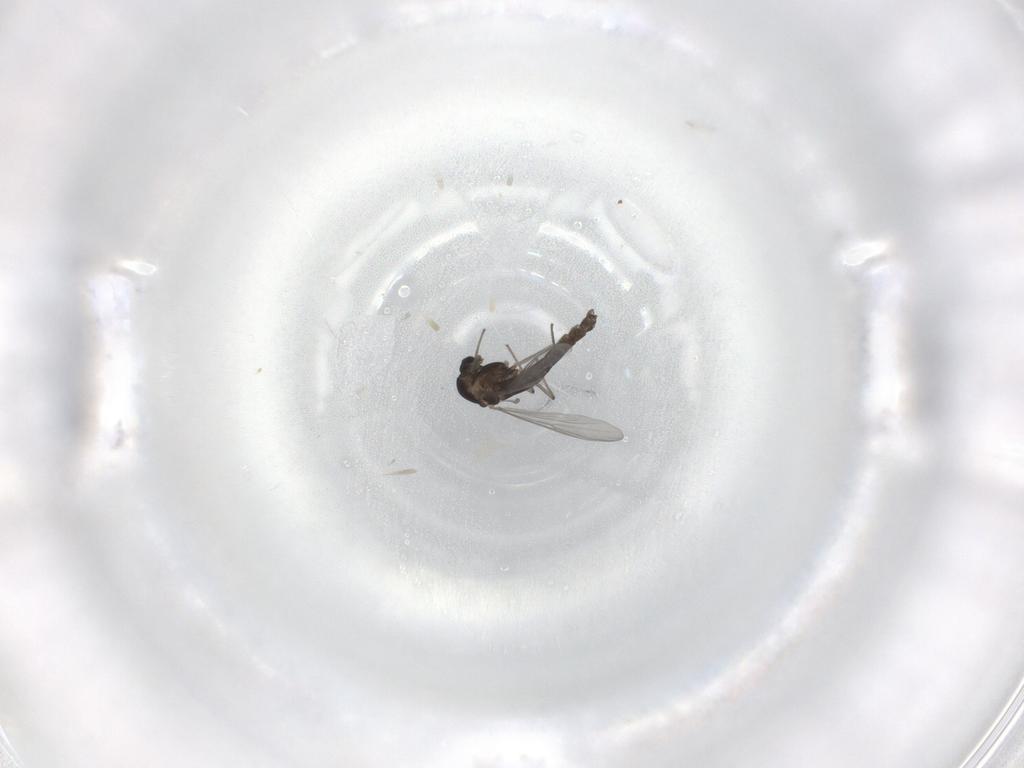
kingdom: Animalia
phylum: Arthropoda
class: Insecta
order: Diptera
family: Chironomidae
